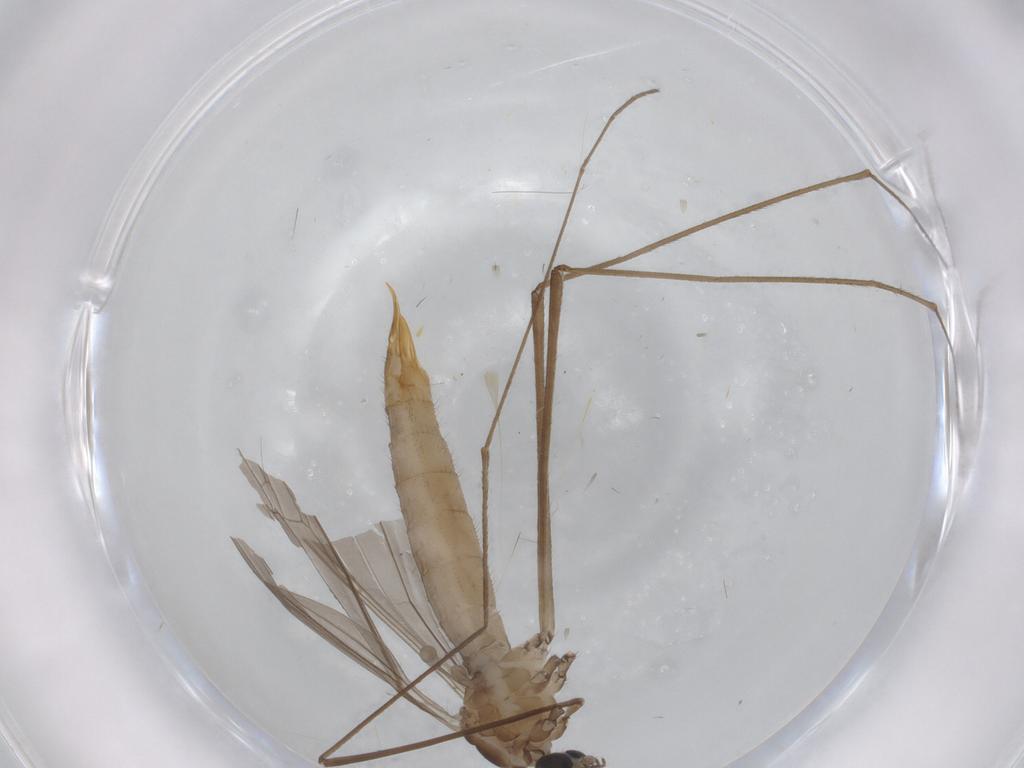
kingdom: Animalia
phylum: Arthropoda
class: Insecta
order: Diptera
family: Limoniidae
